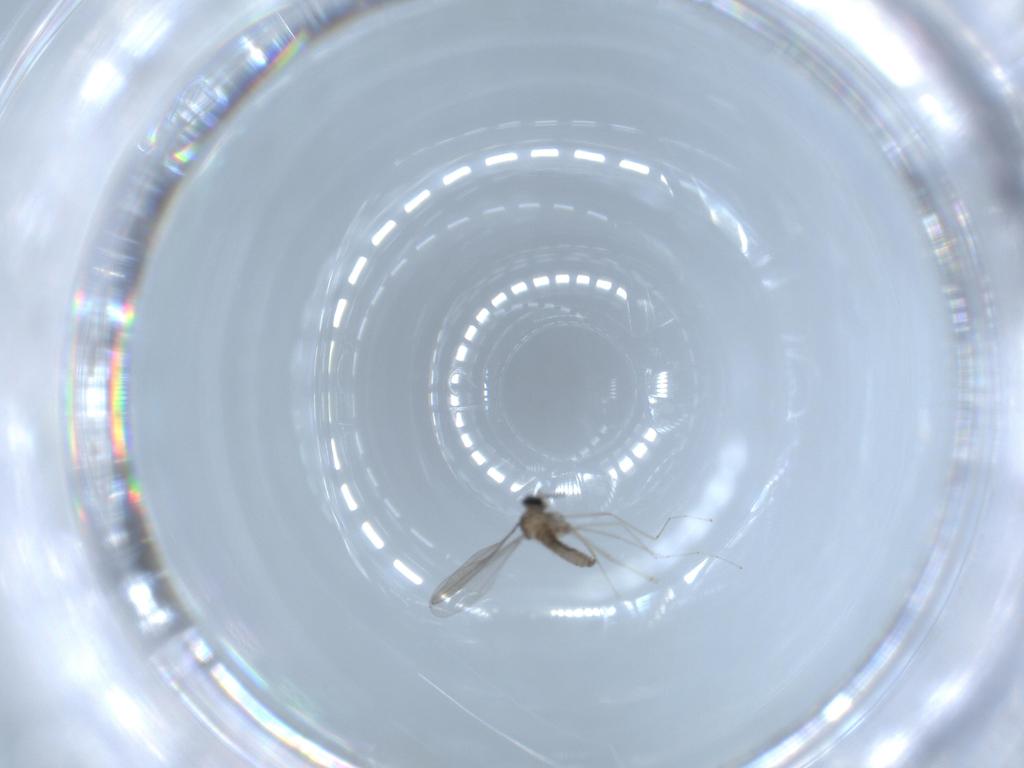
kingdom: Animalia
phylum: Arthropoda
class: Insecta
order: Diptera
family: Cecidomyiidae
